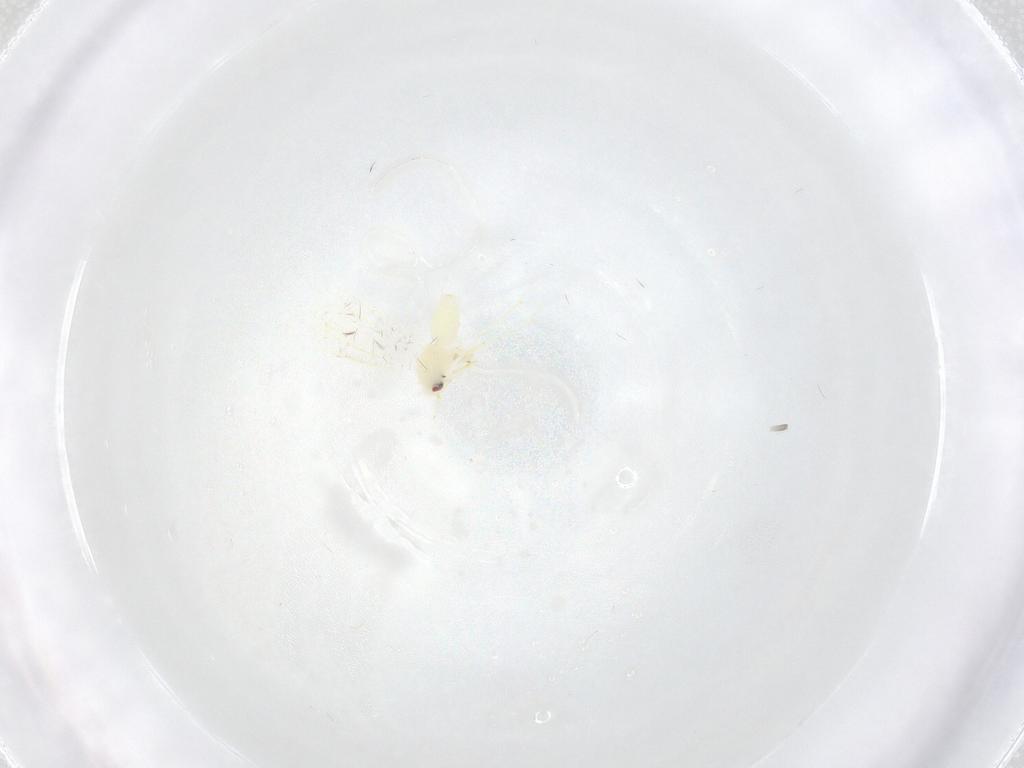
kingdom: Animalia
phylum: Arthropoda
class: Insecta
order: Hemiptera
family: Aleyrodidae
